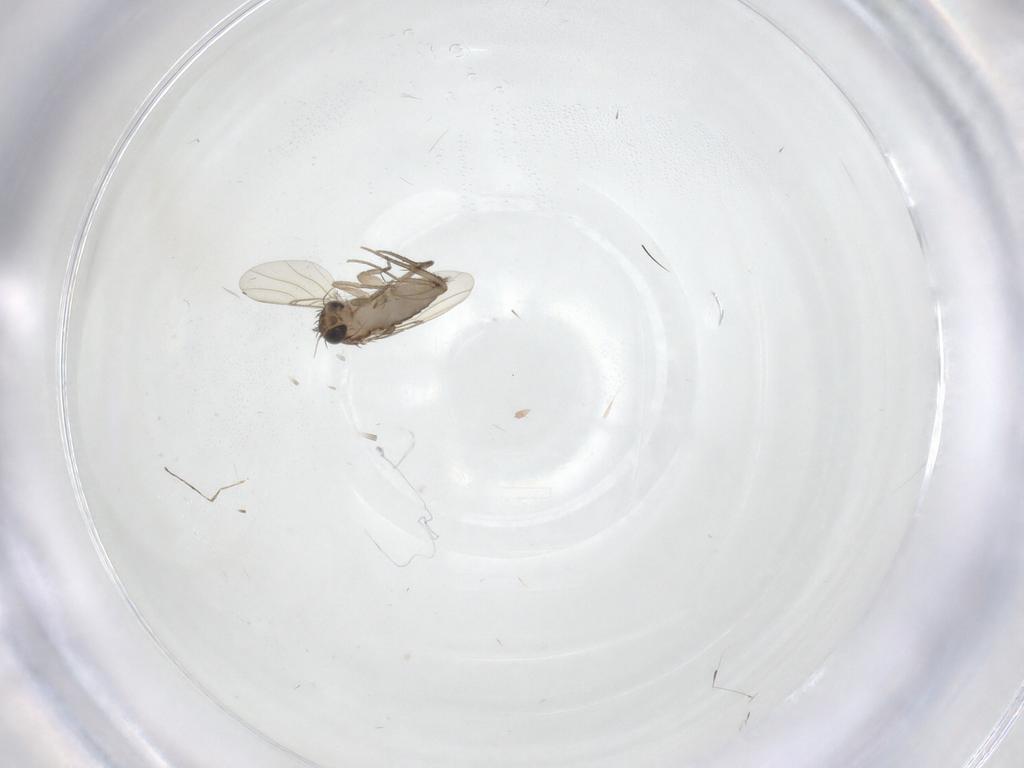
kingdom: Animalia
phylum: Arthropoda
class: Insecta
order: Diptera
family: Phoridae
